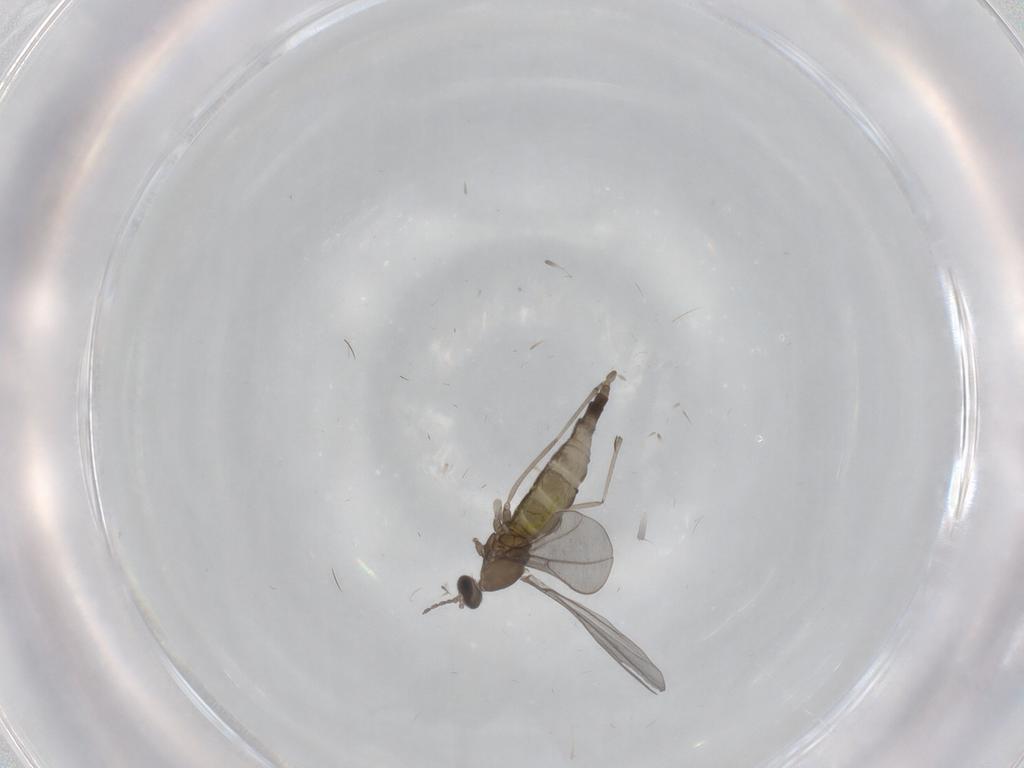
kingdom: Animalia
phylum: Arthropoda
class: Insecta
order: Diptera
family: Cecidomyiidae
